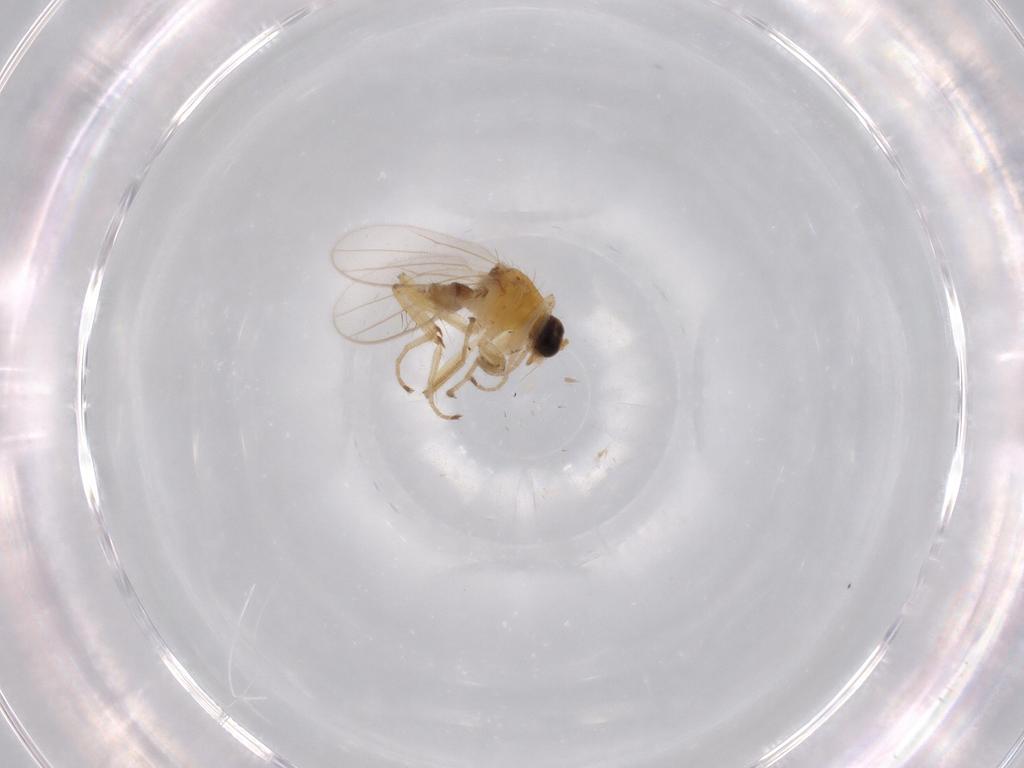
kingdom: Animalia
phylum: Arthropoda
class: Insecta
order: Diptera
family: Hybotidae
